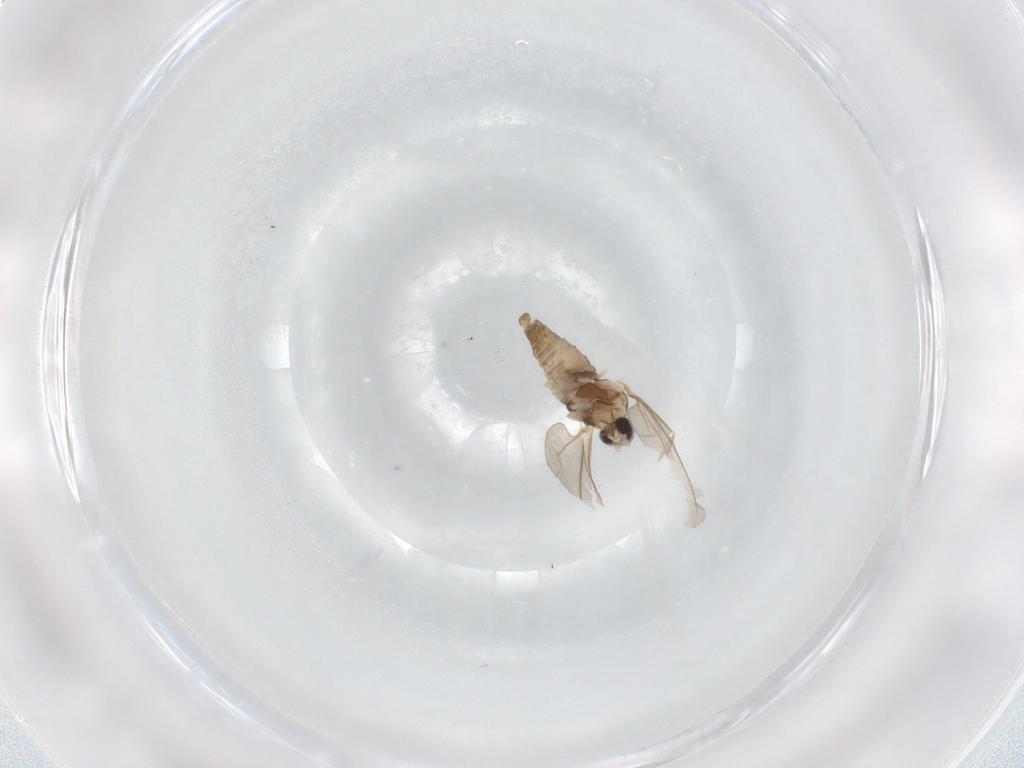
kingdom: Animalia
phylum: Arthropoda
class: Insecta
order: Diptera
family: Cecidomyiidae
